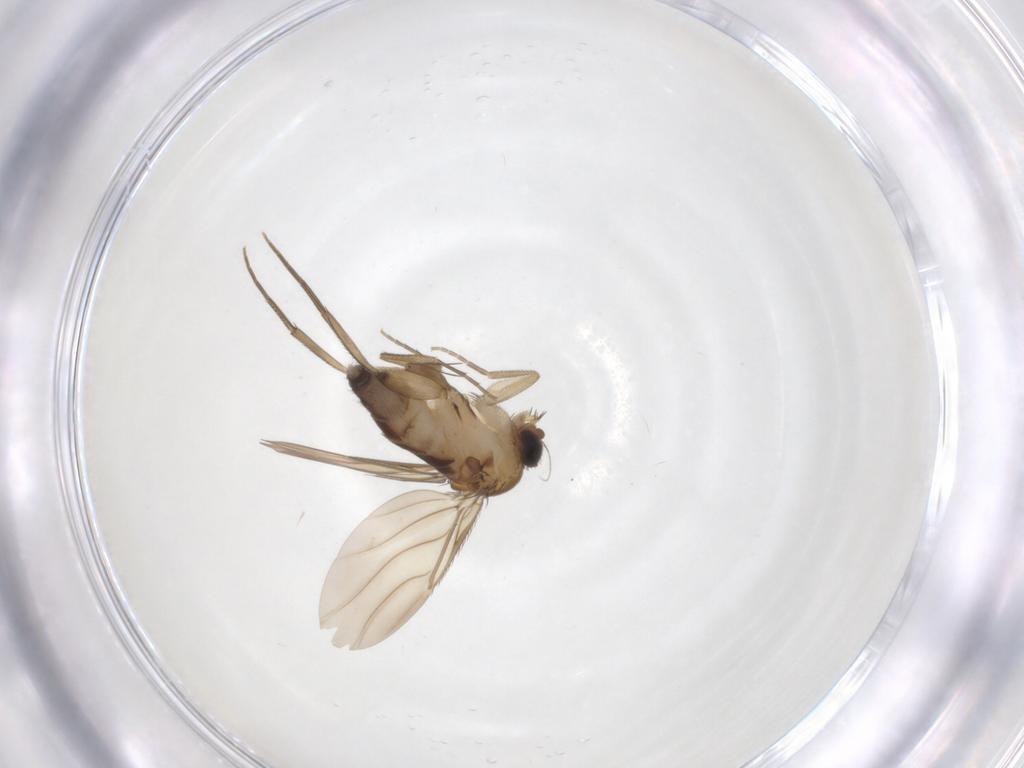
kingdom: Animalia
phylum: Arthropoda
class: Insecta
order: Diptera
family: Phoridae
